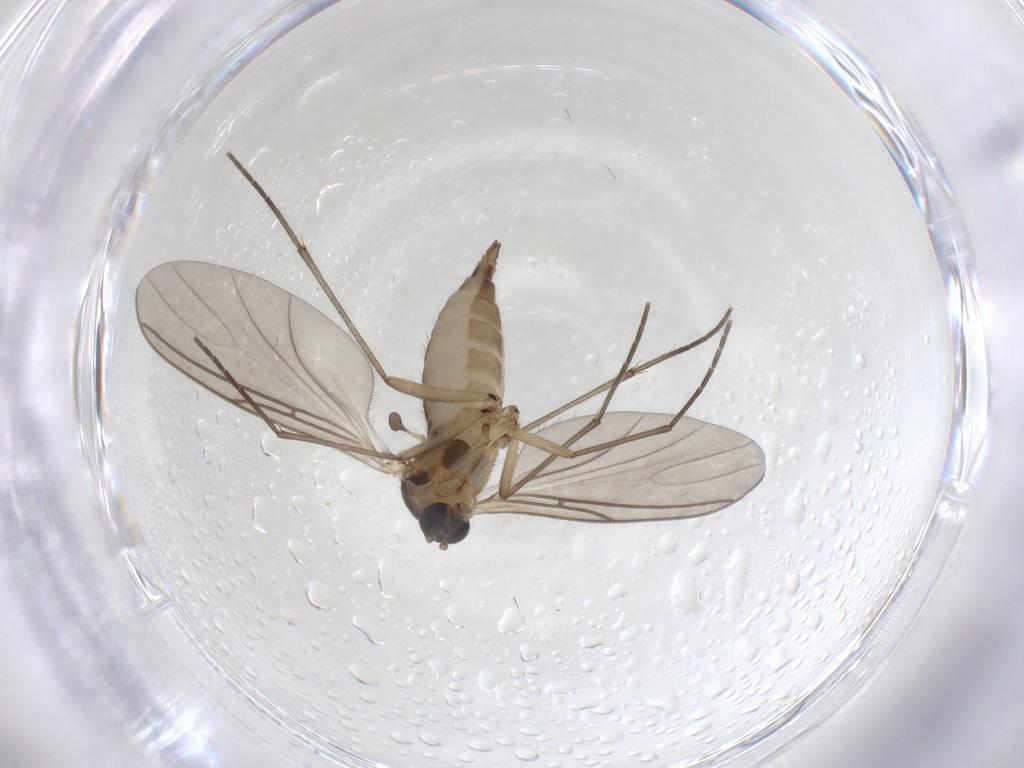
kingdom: Animalia
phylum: Arthropoda
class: Insecta
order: Diptera
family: Sciaridae
